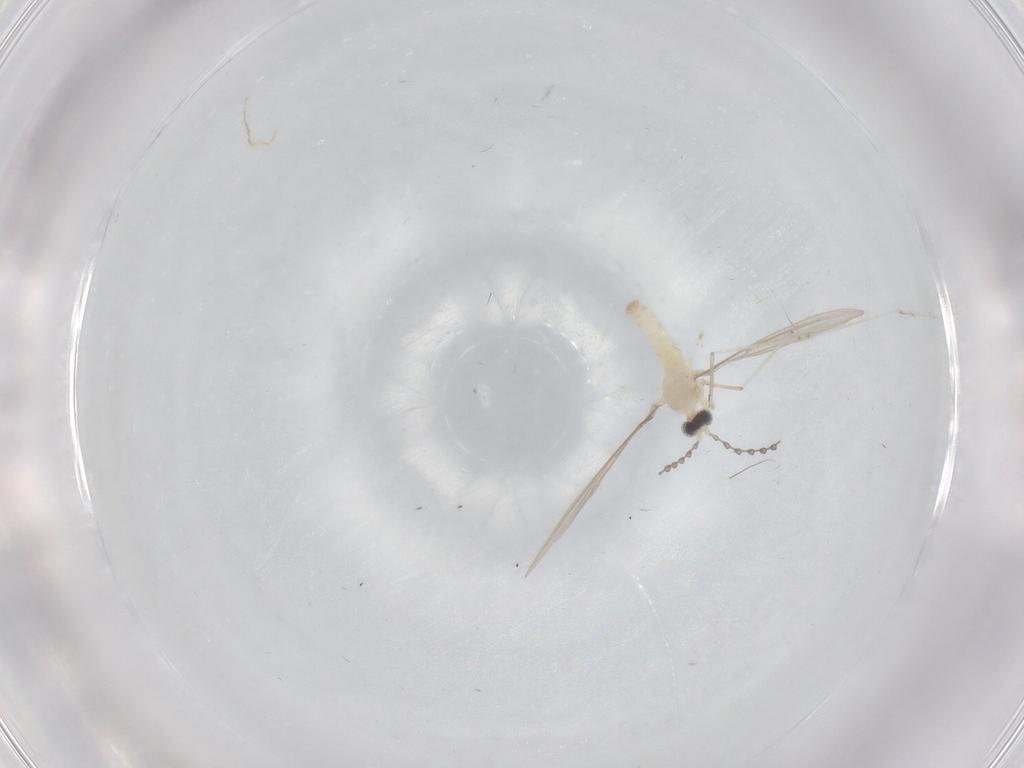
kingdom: Animalia
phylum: Arthropoda
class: Insecta
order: Diptera
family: Cecidomyiidae
